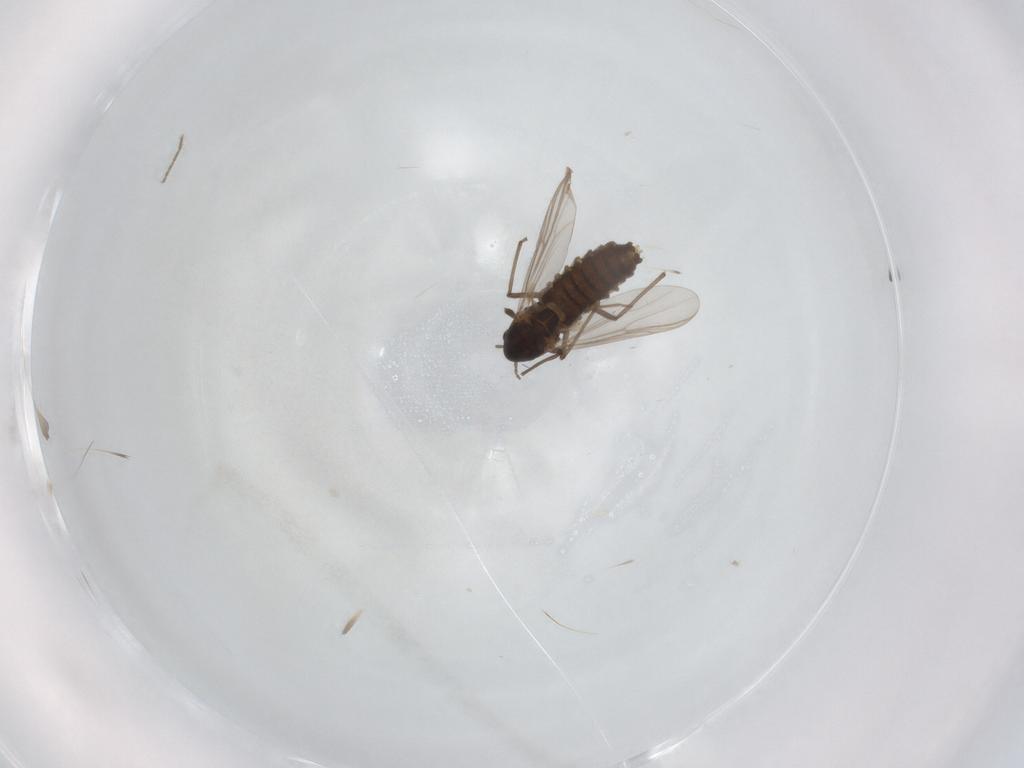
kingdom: Animalia
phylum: Arthropoda
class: Insecta
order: Diptera
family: Chironomidae
